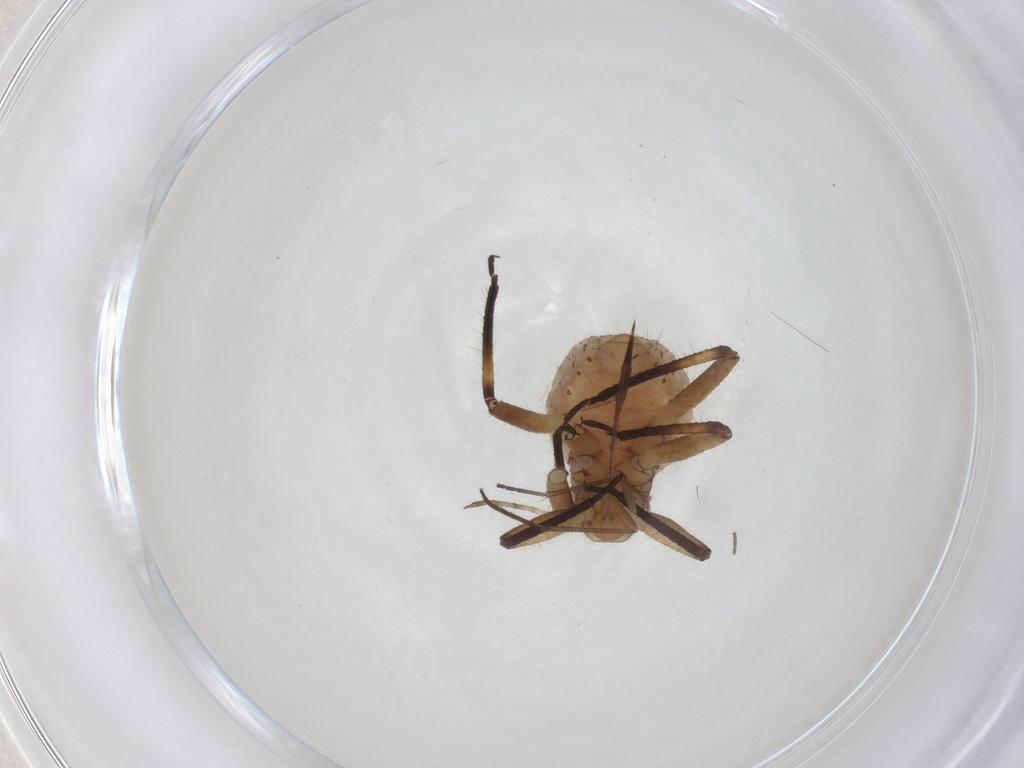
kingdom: Animalia
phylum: Arthropoda
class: Insecta
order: Hemiptera
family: Aphididae
